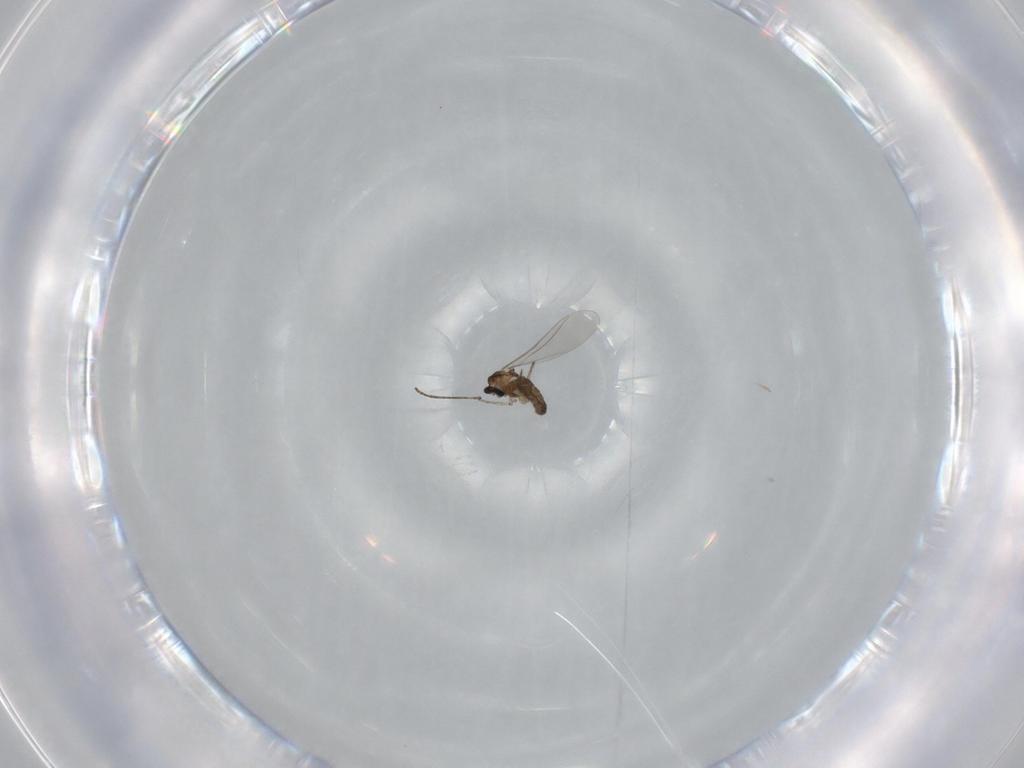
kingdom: Animalia
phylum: Arthropoda
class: Insecta
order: Diptera
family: Cecidomyiidae
